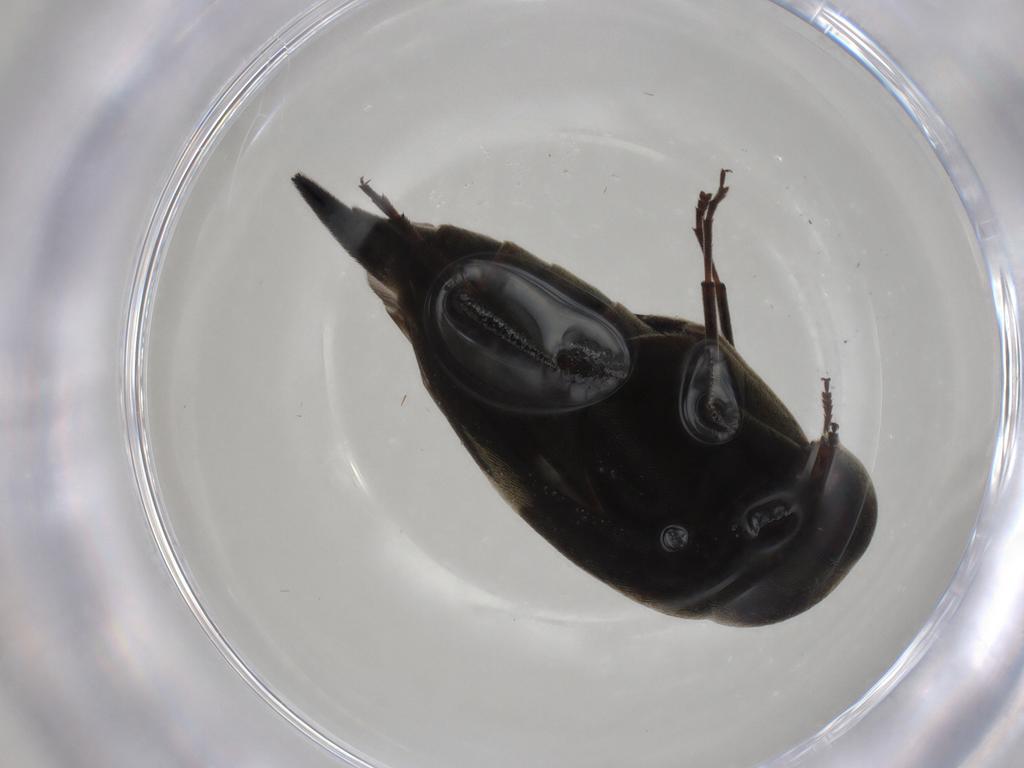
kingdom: Animalia
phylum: Arthropoda
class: Insecta
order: Coleoptera
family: Mordellidae
